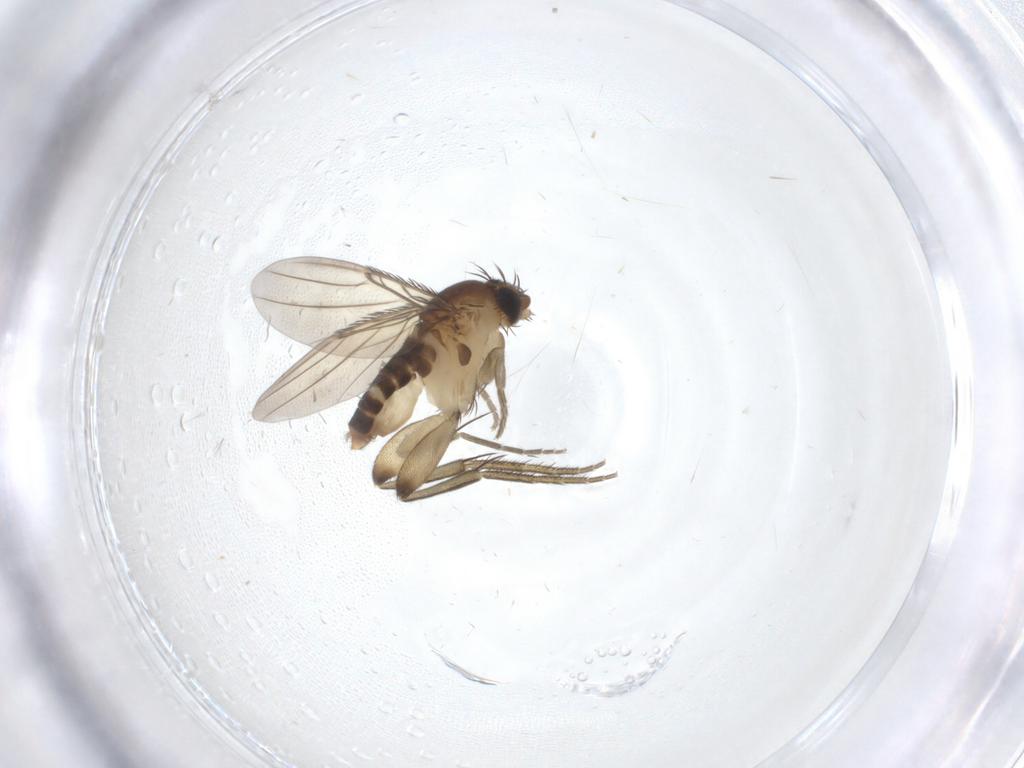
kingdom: Animalia
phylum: Arthropoda
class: Insecta
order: Diptera
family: Phoridae
